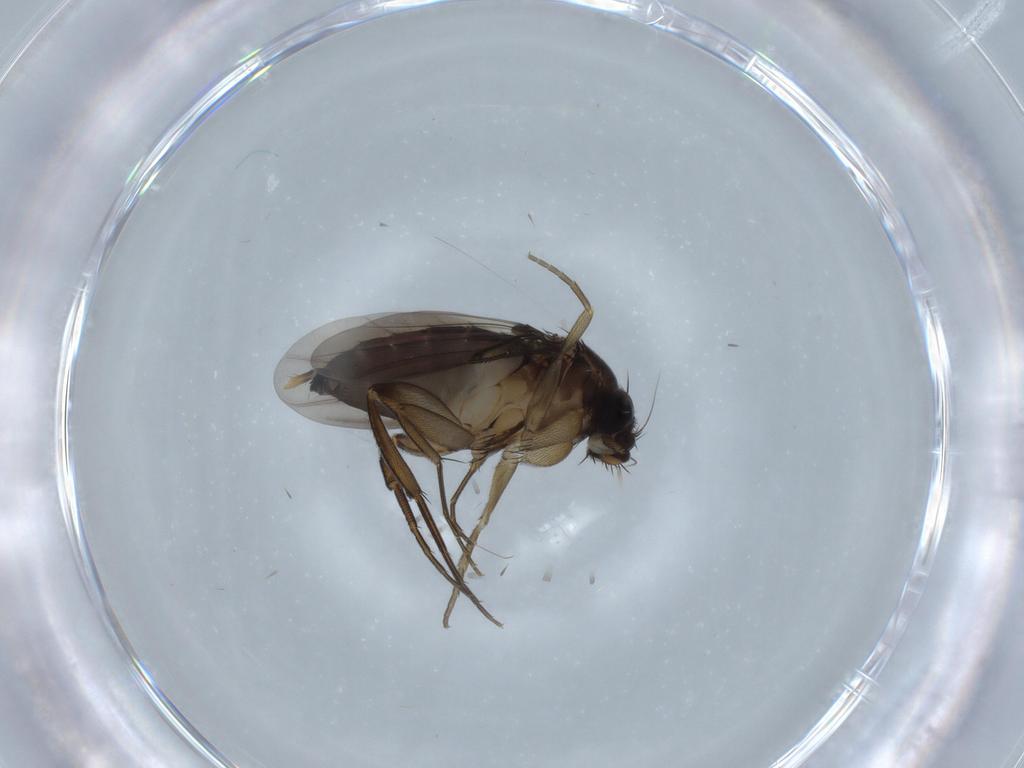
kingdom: Animalia
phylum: Arthropoda
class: Insecta
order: Diptera
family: Phoridae
